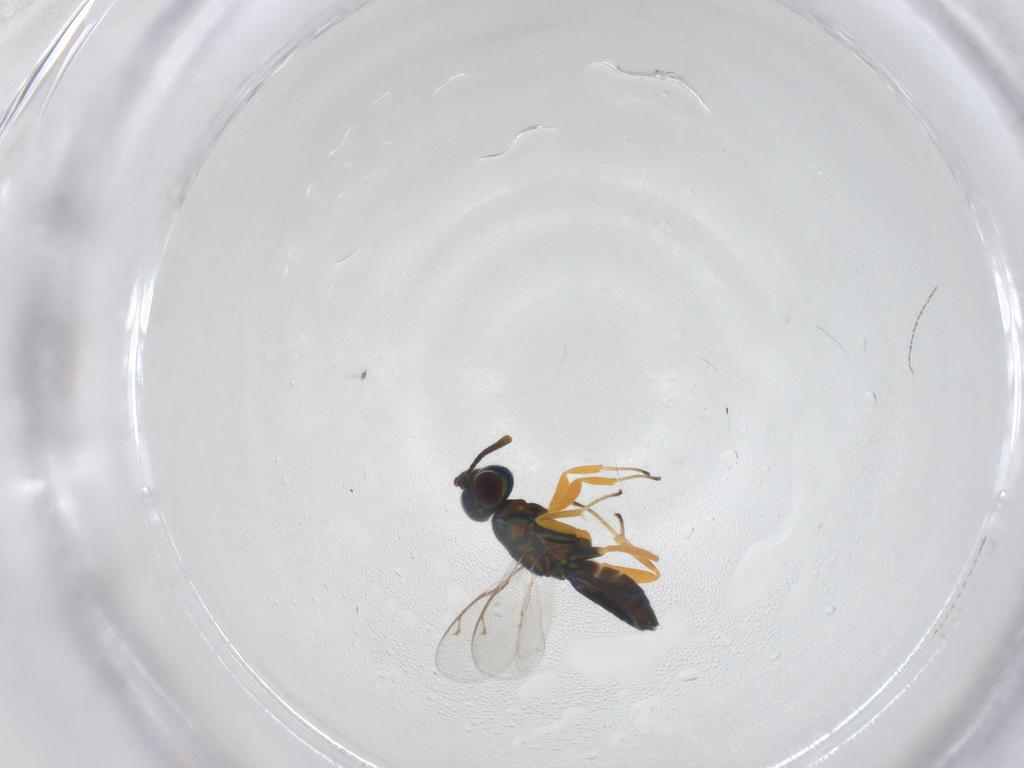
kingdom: Animalia
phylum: Arthropoda
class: Insecta
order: Hymenoptera
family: Eupelmidae
